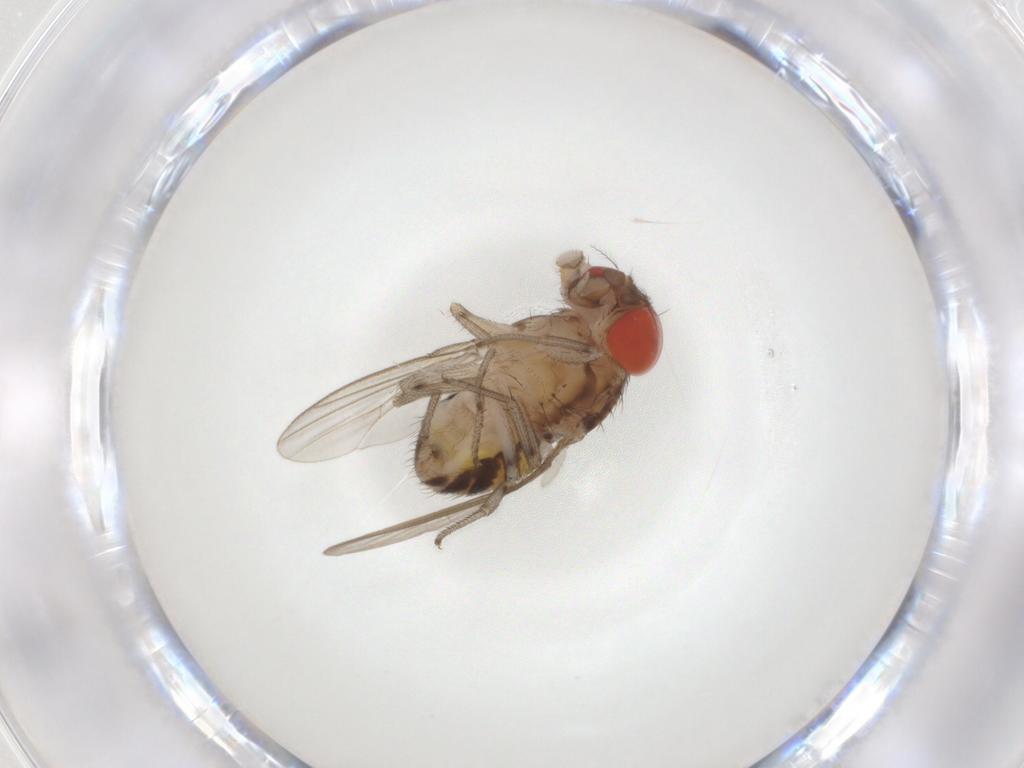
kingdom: Animalia
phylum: Arthropoda
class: Insecta
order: Diptera
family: Drosophilidae
